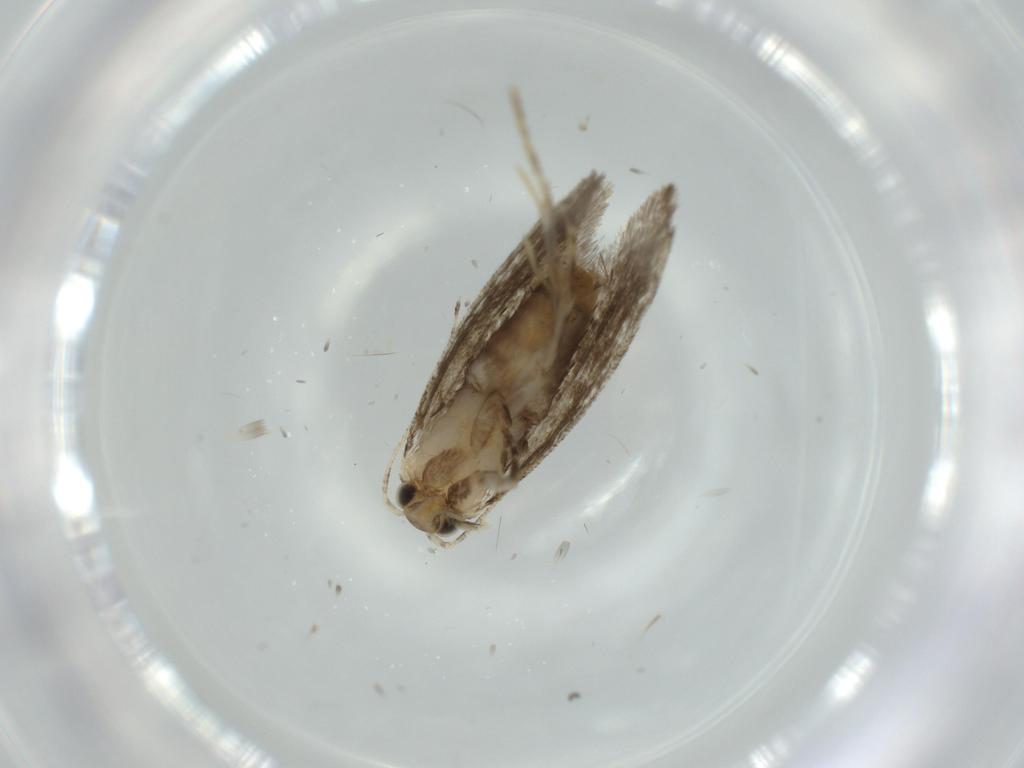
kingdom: Animalia
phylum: Arthropoda
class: Insecta
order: Lepidoptera
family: Tineidae
